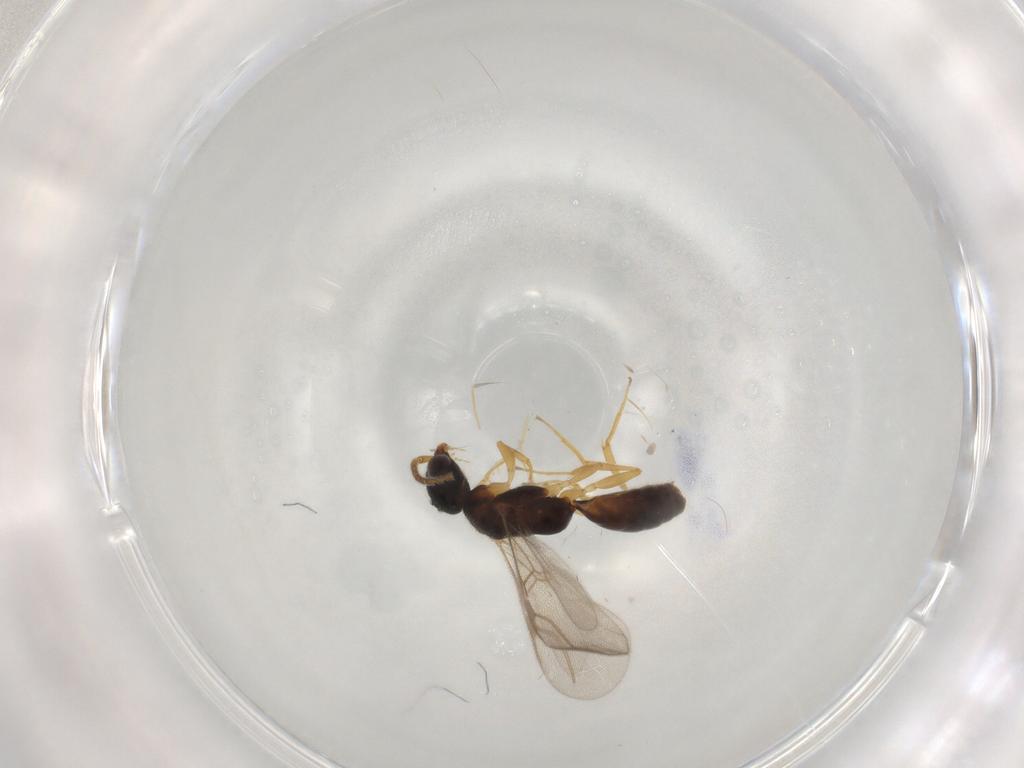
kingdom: Animalia
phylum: Arthropoda
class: Insecta
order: Hymenoptera
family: Bethylidae
